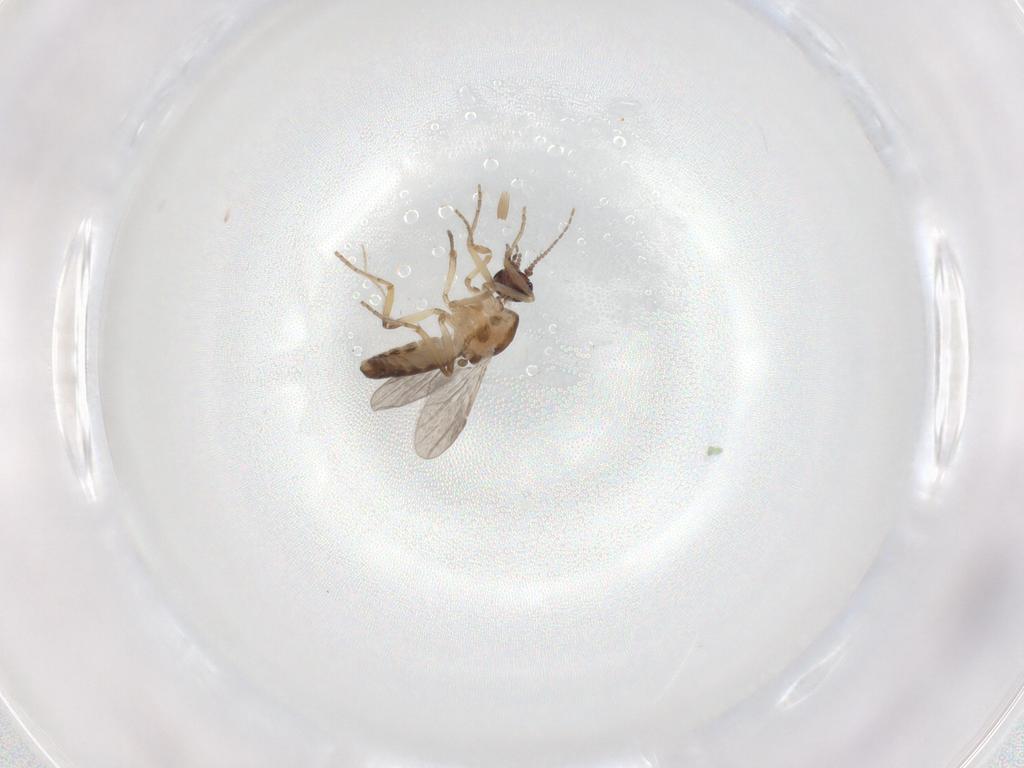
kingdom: Animalia
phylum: Arthropoda
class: Insecta
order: Diptera
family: Ceratopogonidae
